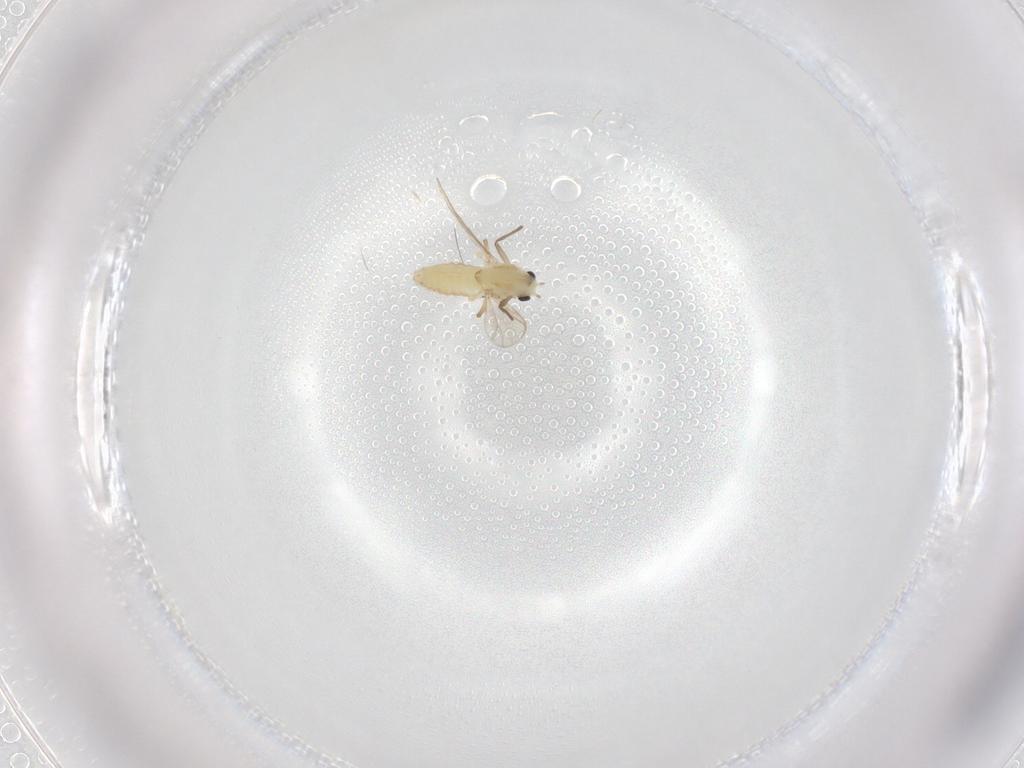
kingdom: Animalia
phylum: Arthropoda
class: Insecta
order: Diptera
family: Chironomidae
